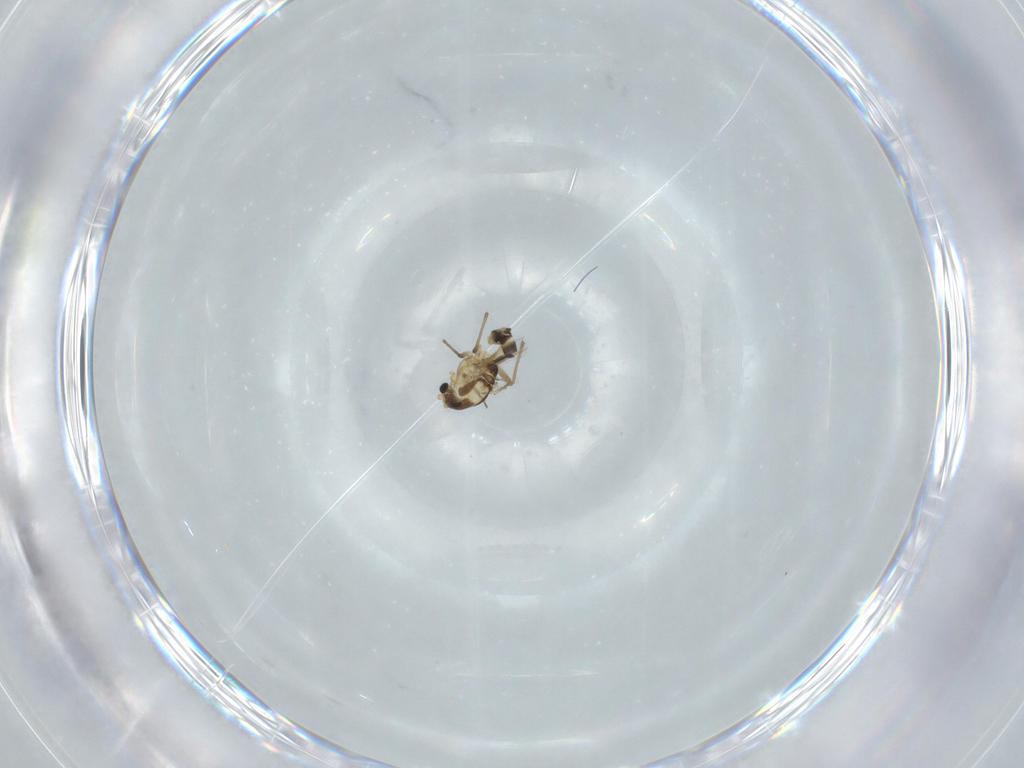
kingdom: Animalia
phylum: Arthropoda
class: Insecta
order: Diptera
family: Chironomidae
